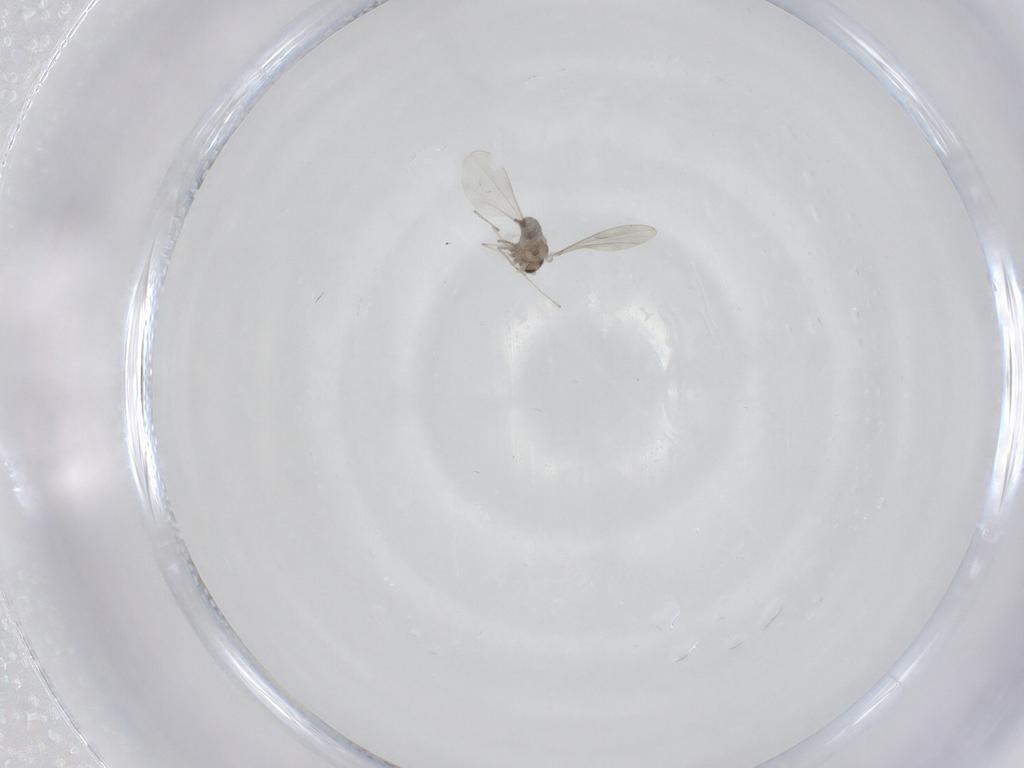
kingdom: Animalia
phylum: Arthropoda
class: Insecta
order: Diptera
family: Cecidomyiidae
